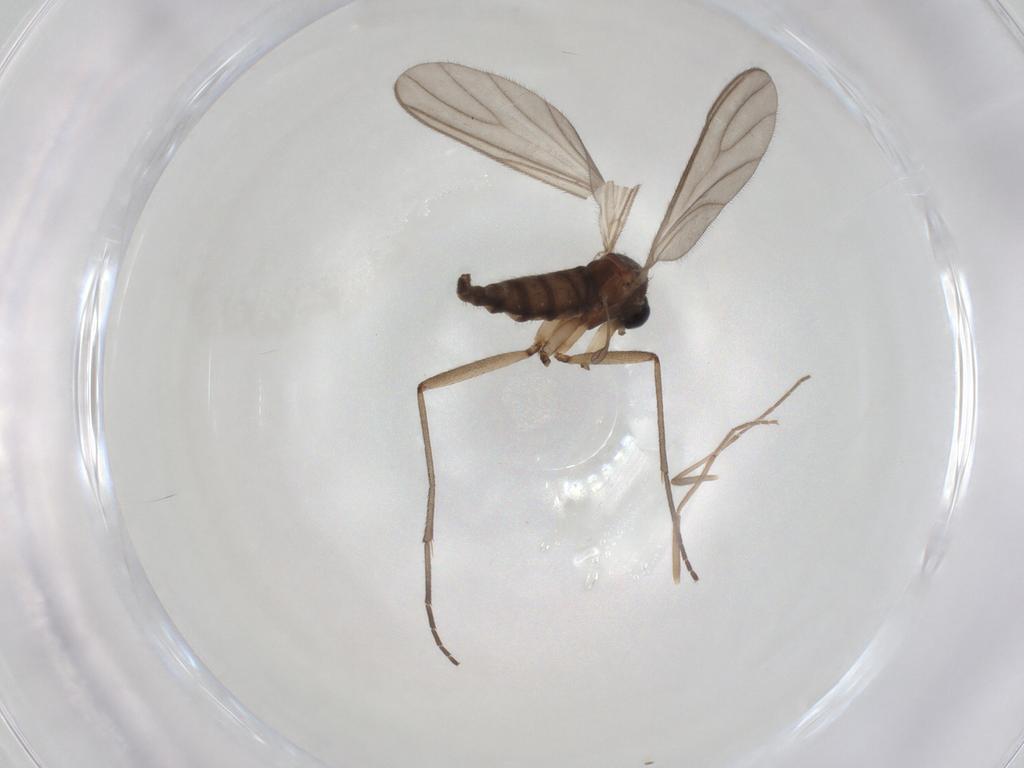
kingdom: Animalia
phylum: Arthropoda
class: Insecta
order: Diptera
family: Sciaridae
